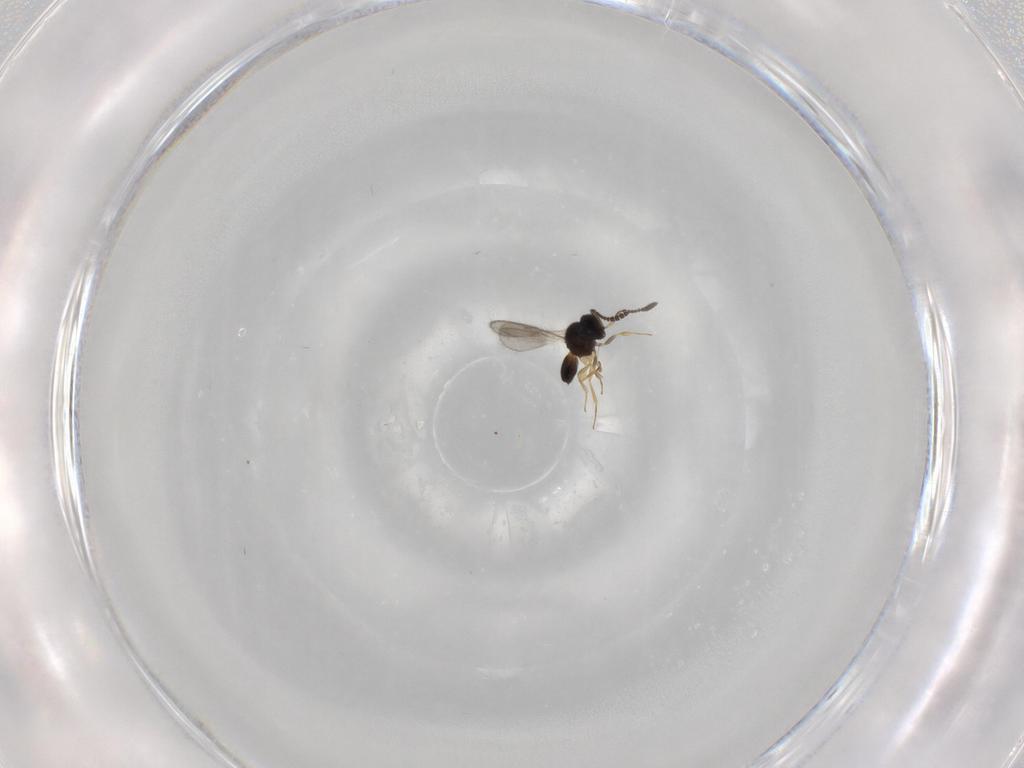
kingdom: Animalia
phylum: Arthropoda
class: Insecta
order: Hymenoptera
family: Scelionidae
